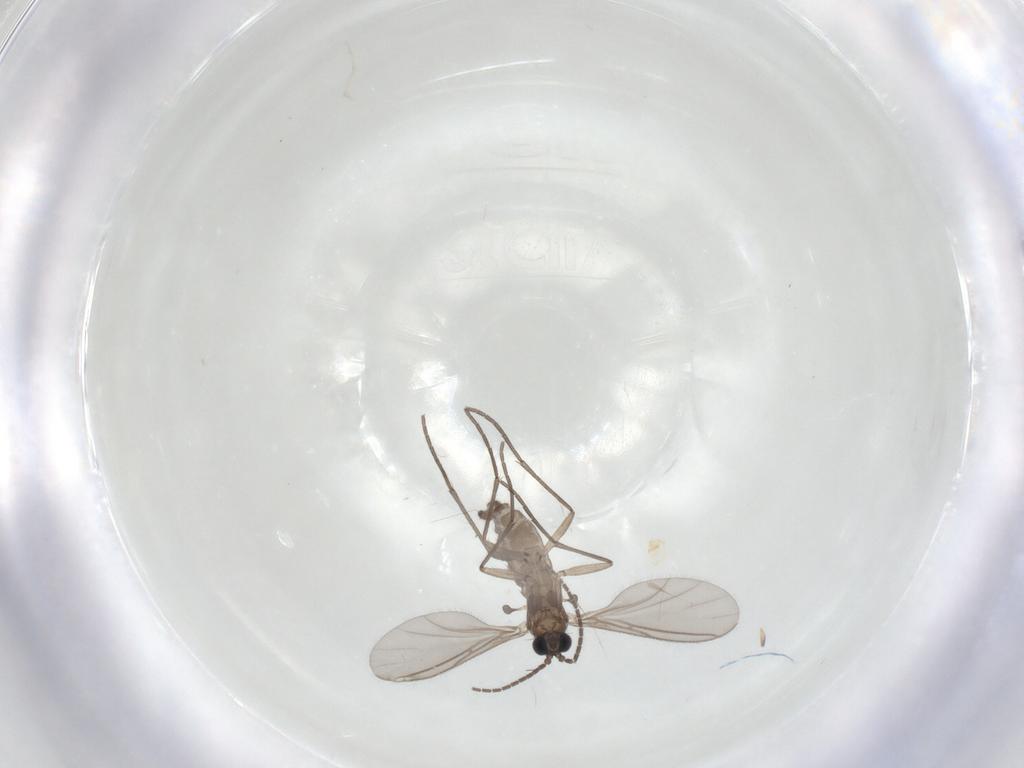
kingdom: Animalia
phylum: Arthropoda
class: Insecta
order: Diptera
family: Sciaridae
